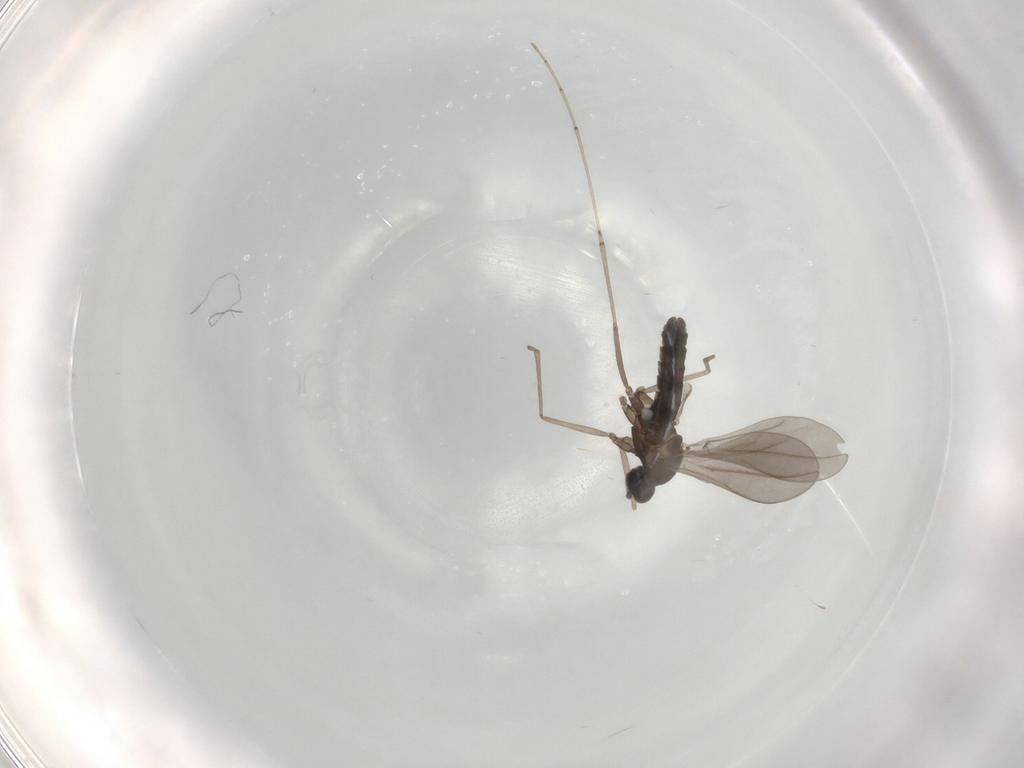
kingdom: Animalia
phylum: Arthropoda
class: Insecta
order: Diptera
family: Cecidomyiidae
